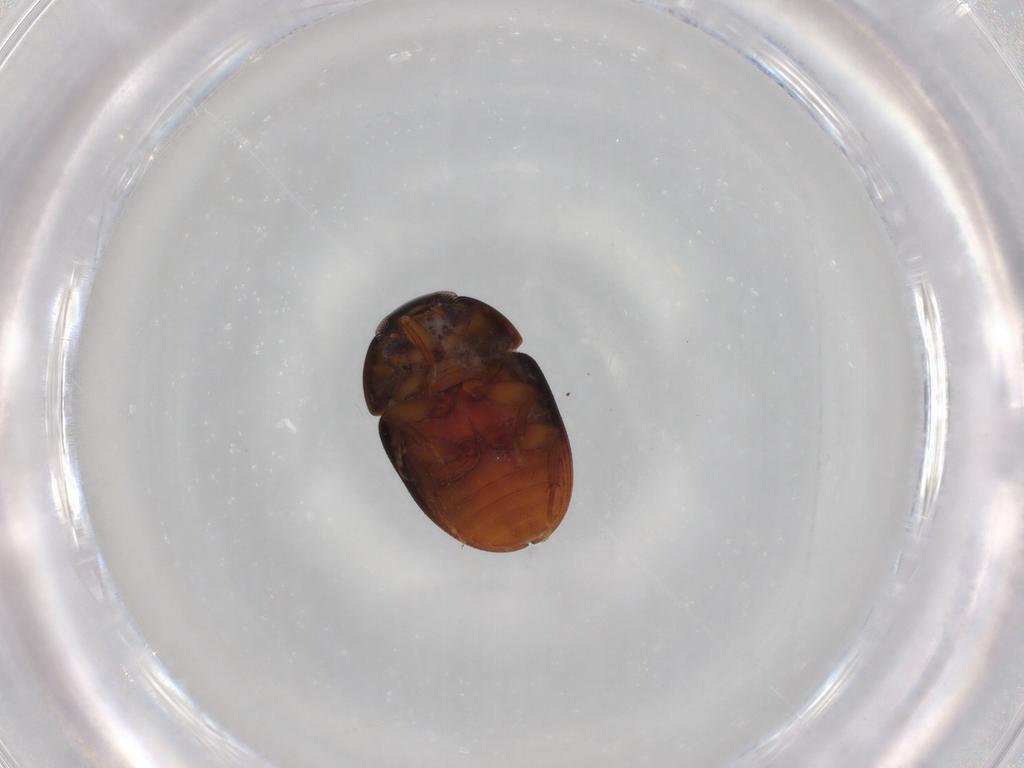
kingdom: Animalia
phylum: Arthropoda
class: Insecta
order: Coleoptera
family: Phalacridae
